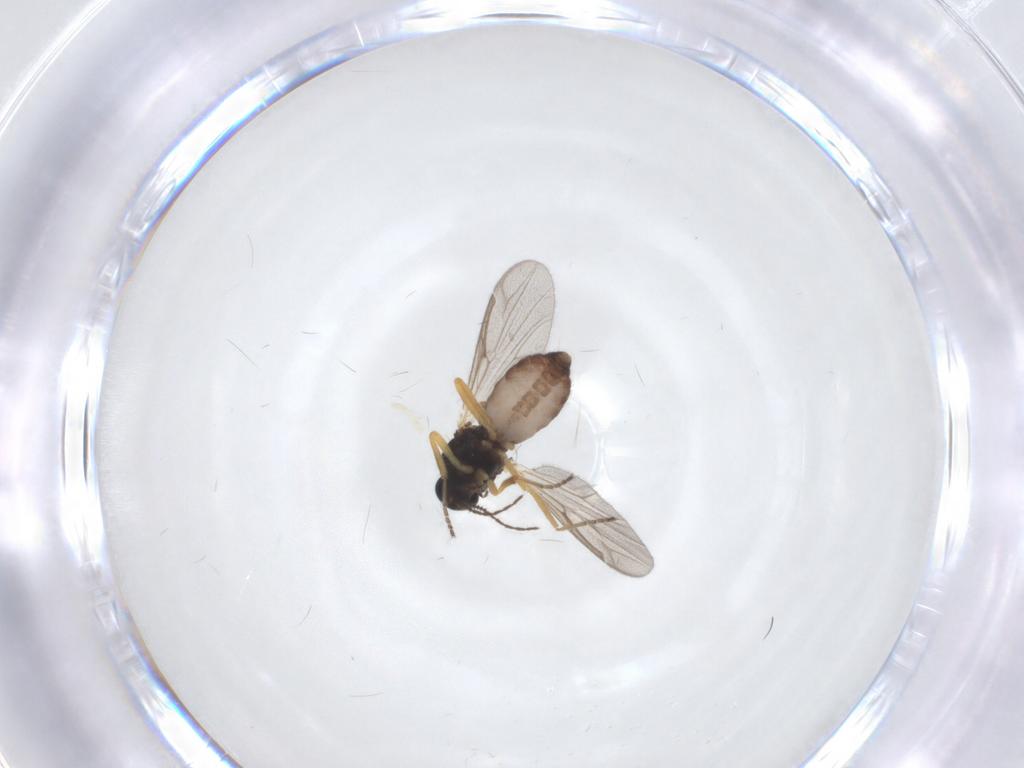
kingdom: Animalia
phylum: Arthropoda
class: Insecta
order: Diptera
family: Ceratopogonidae
